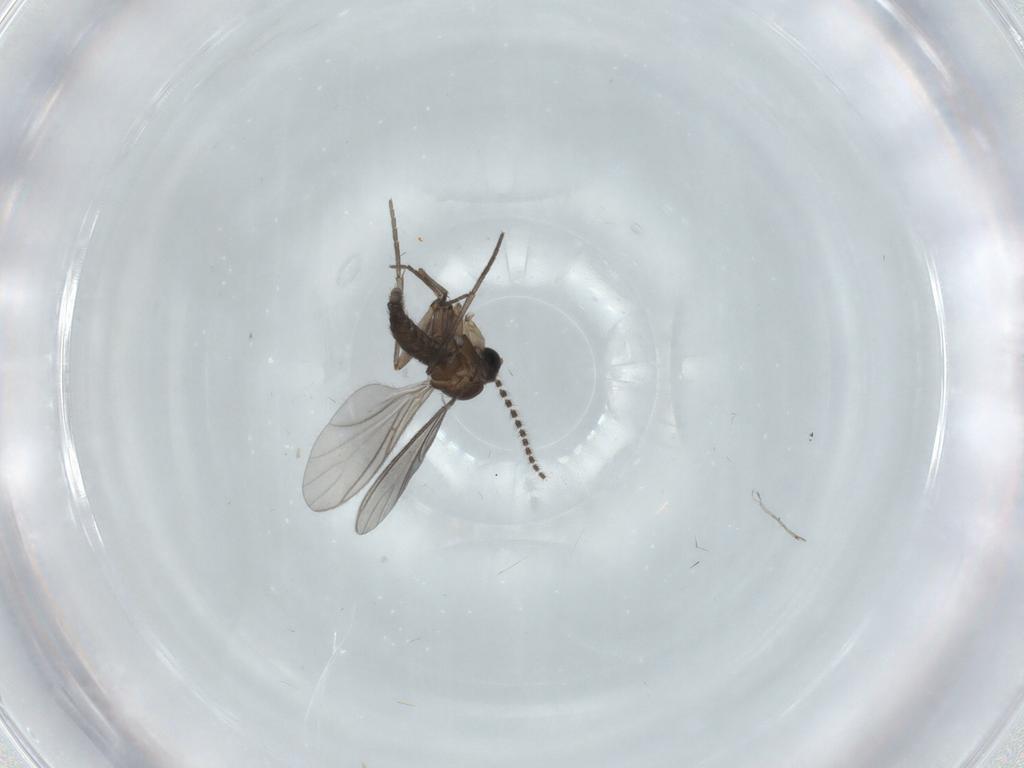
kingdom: Animalia
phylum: Arthropoda
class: Insecta
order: Diptera
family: Sciaridae
